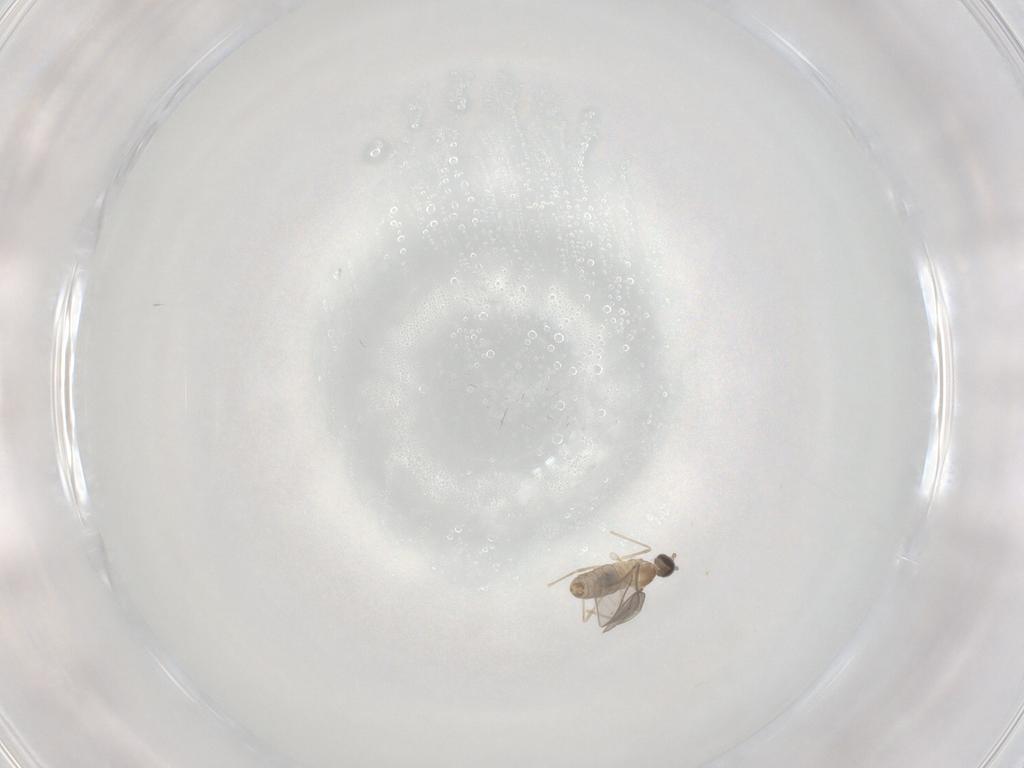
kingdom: Animalia
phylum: Arthropoda
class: Insecta
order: Diptera
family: Cecidomyiidae
